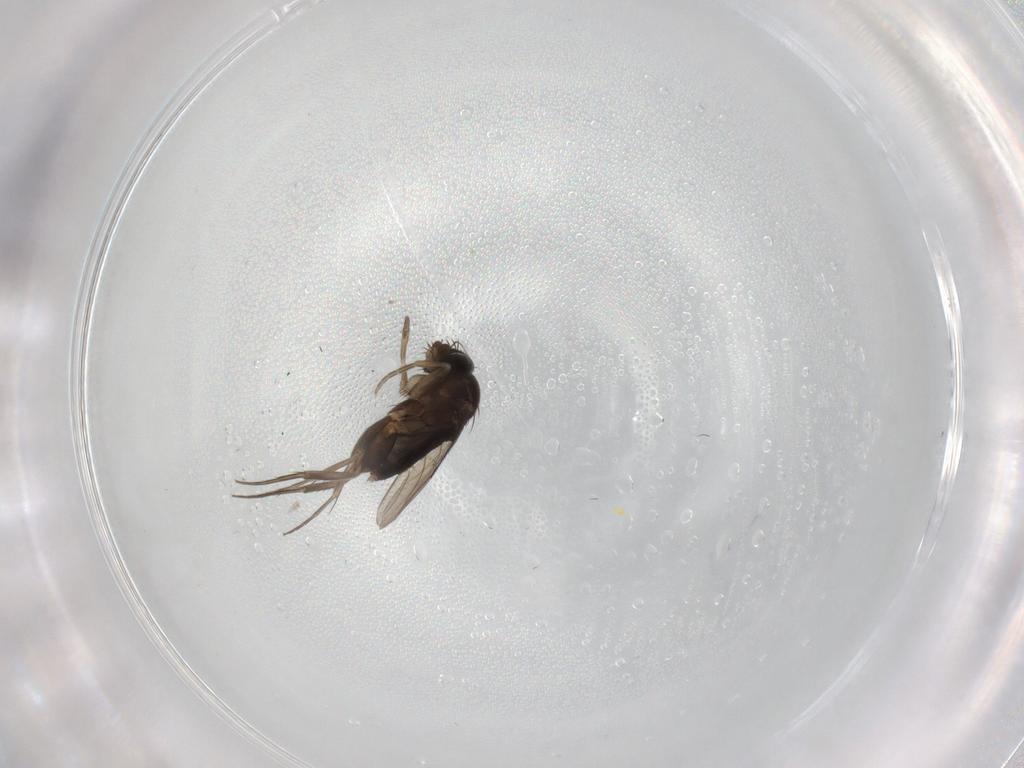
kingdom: Animalia
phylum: Arthropoda
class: Insecta
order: Diptera
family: Phoridae
